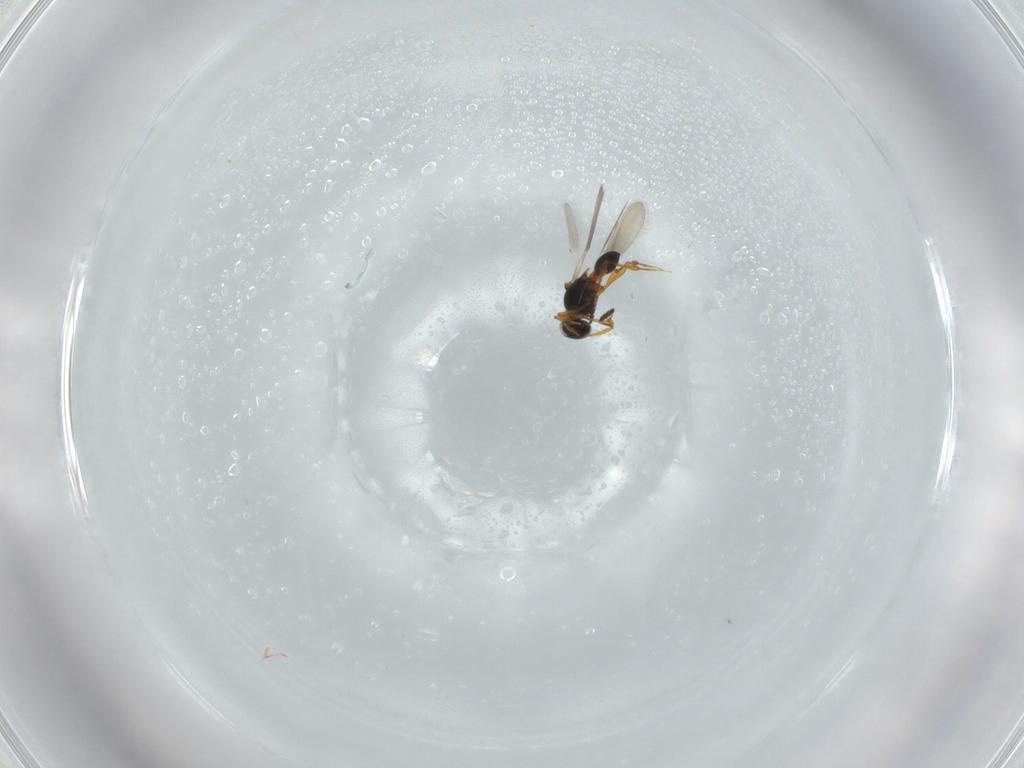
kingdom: Animalia
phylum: Arthropoda
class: Insecta
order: Hymenoptera
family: Platygastridae
